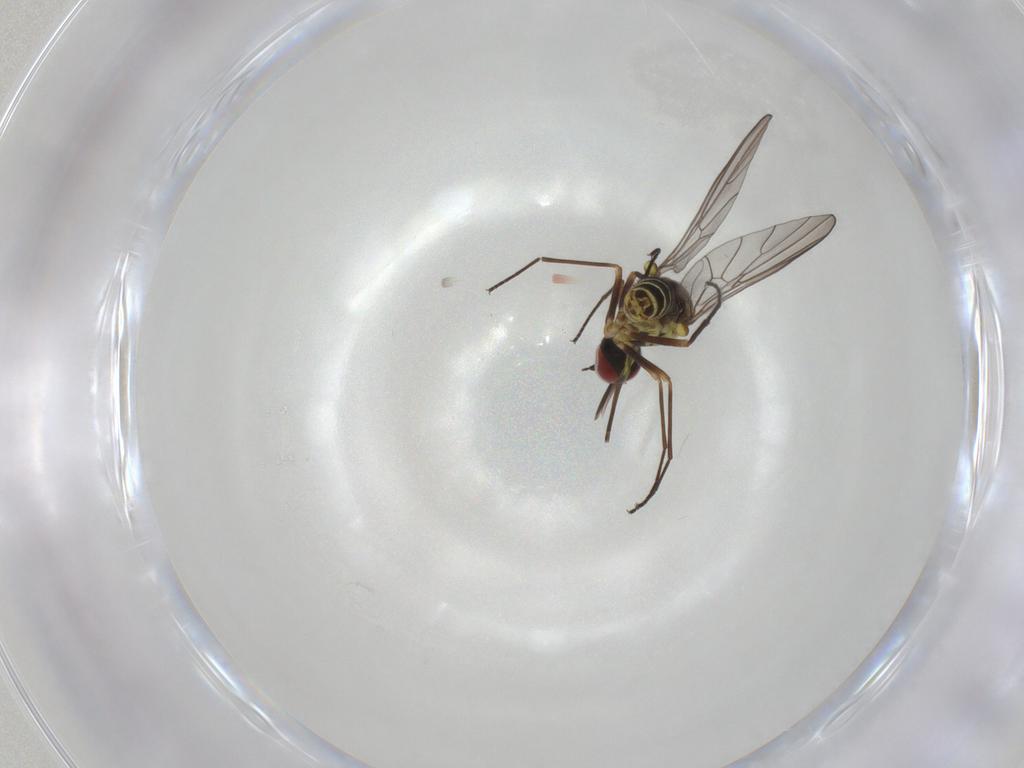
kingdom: Animalia
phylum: Arthropoda
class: Insecta
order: Diptera
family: Bombyliidae
